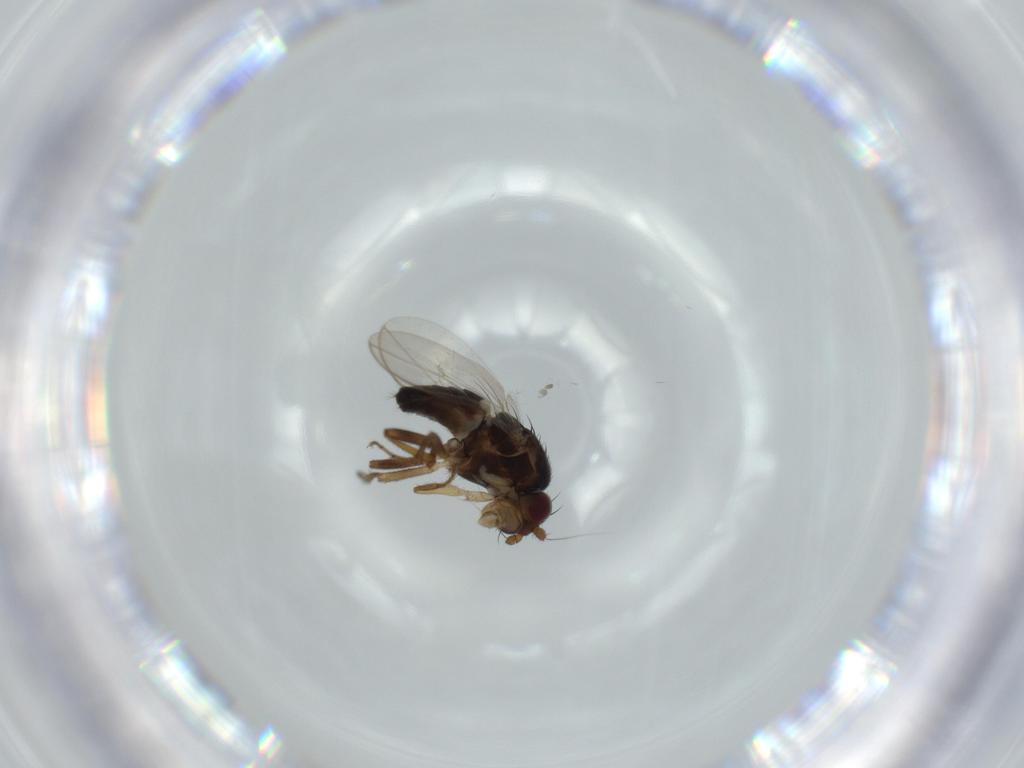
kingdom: Animalia
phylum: Arthropoda
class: Insecta
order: Diptera
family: Sphaeroceridae
